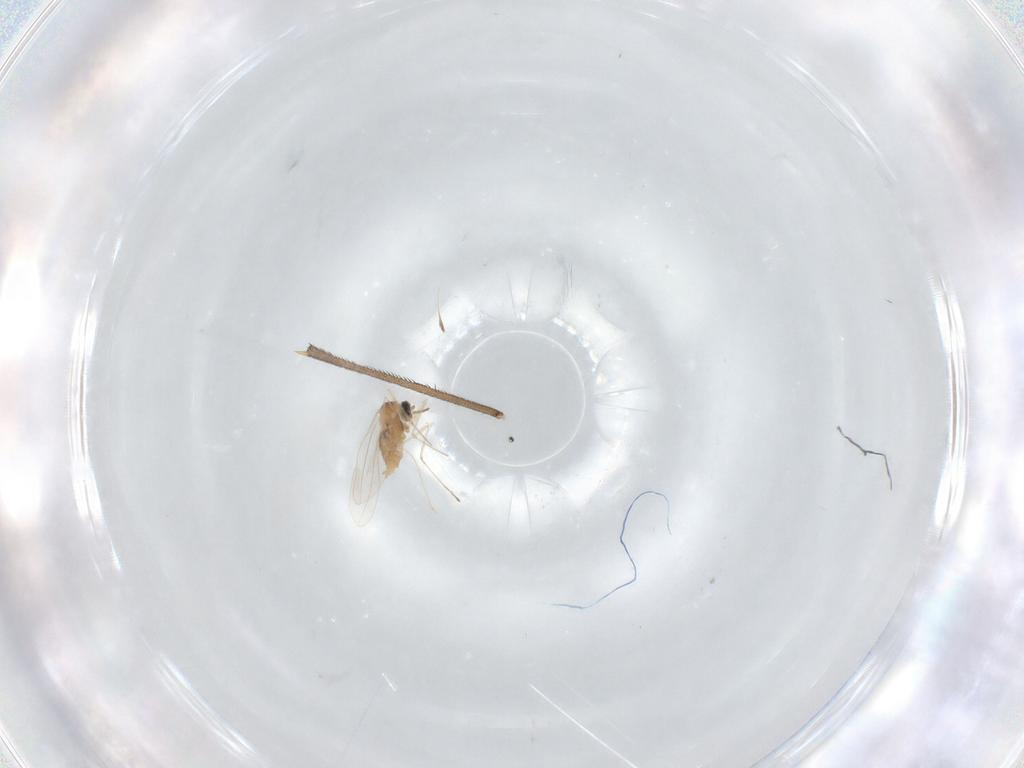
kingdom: Animalia
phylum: Arthropoda
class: Insecta
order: Diptera
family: Cecidomyiidae
